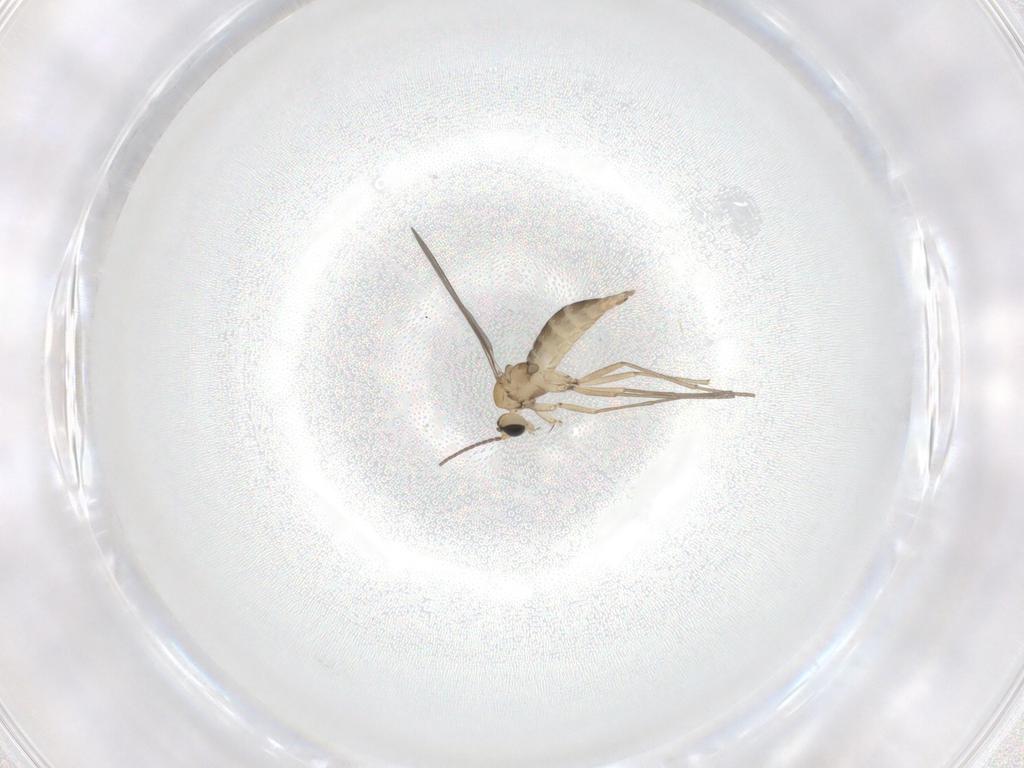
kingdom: Animalia
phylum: Arthropoda
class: Insecta
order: Diptera
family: Sciaridae
